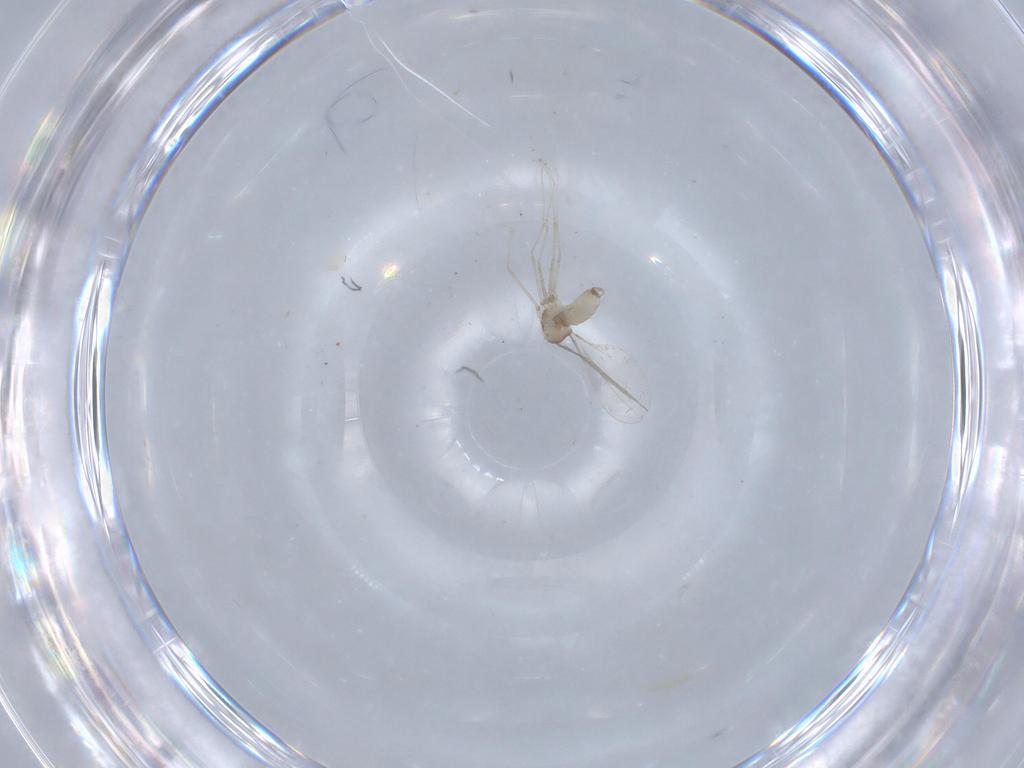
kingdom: Animalia
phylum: Arthropoda
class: Insecta
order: Diptera
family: Cecidomyiidae
